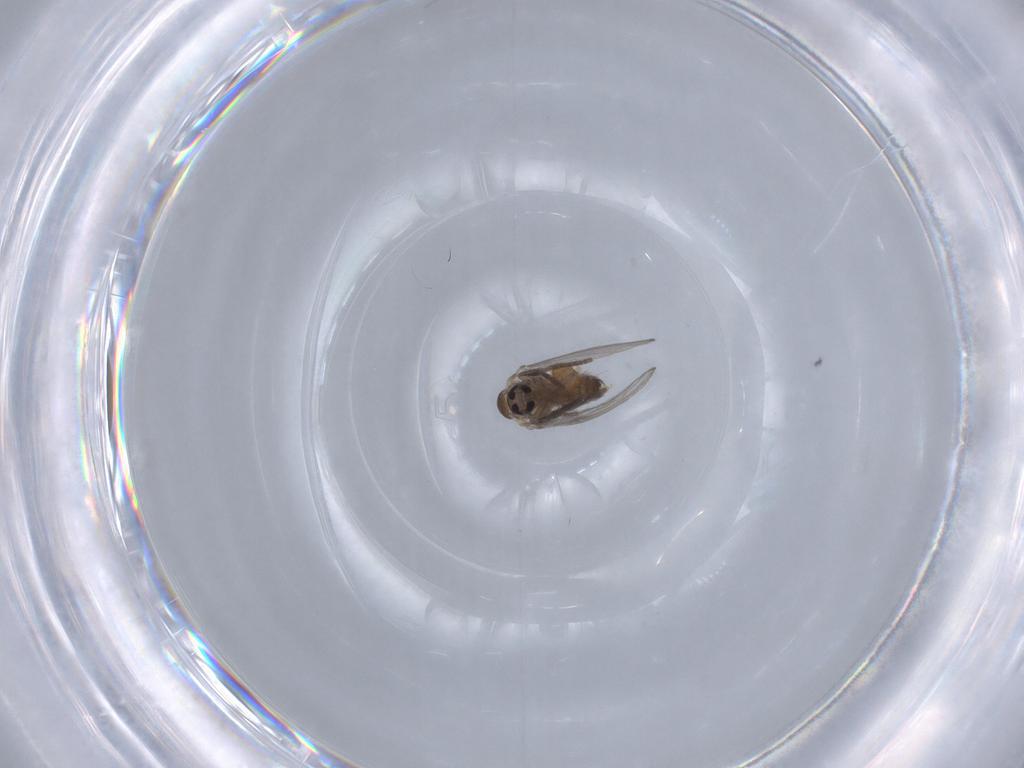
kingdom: Animalia
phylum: Arthropoda
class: Insecta
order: Diptera
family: Psychodidae
